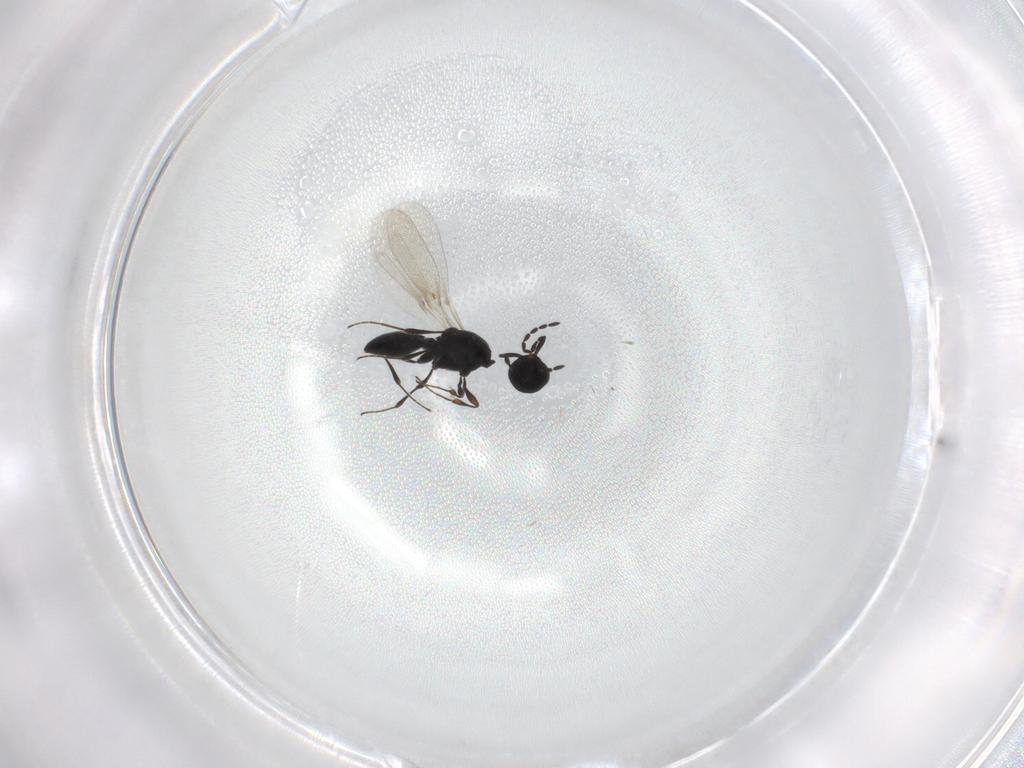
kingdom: Animalia
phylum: Arthropoda
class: Insecta
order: Hymenoptera
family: Platygastridae
